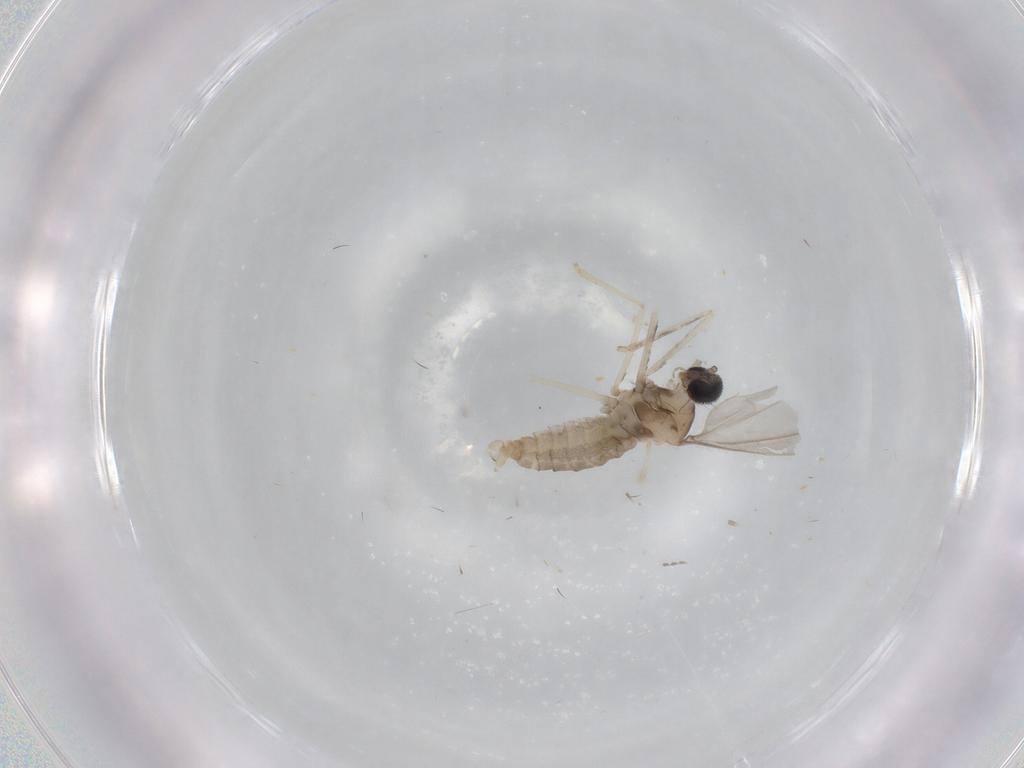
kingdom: Animalia
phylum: Arthropoda
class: Insecta
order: Diptera
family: Cecidomyiidae
